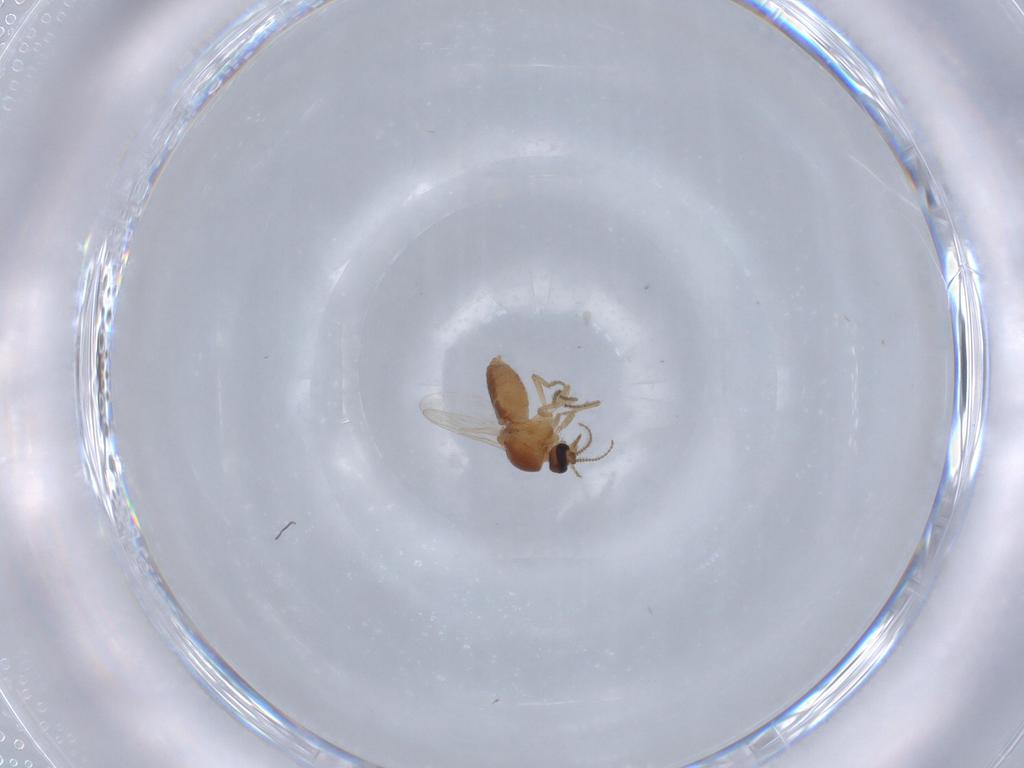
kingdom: Animalia
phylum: Arthropoda
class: Insecta
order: Diptera
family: Ceratopogonidae
